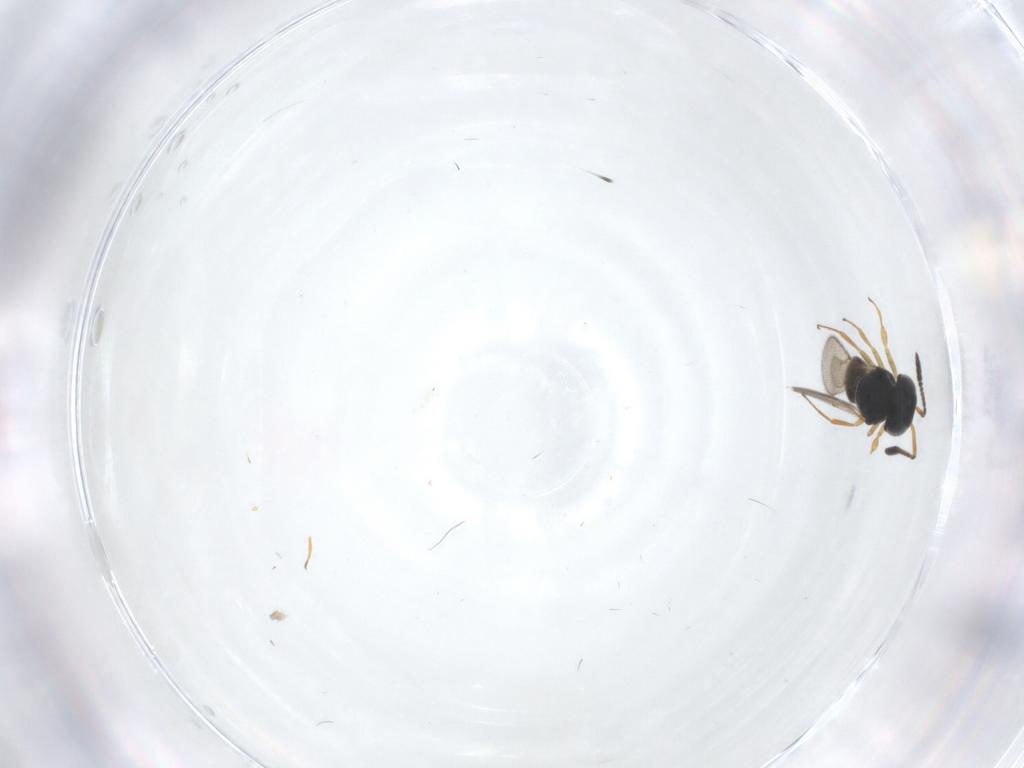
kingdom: Animalia
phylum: Arthropoda
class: Insecta
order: Hymenoptera
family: Scelionidae
